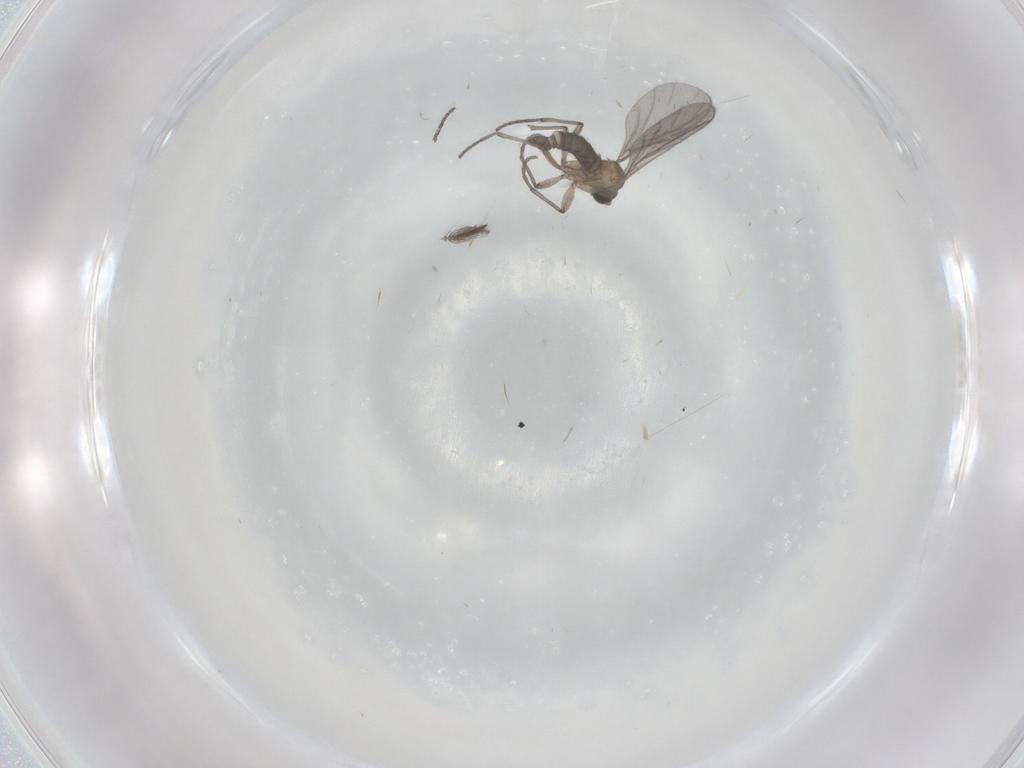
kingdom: Animalia
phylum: Arthropoda
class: Insecta
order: Diptera
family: Sciaridae
